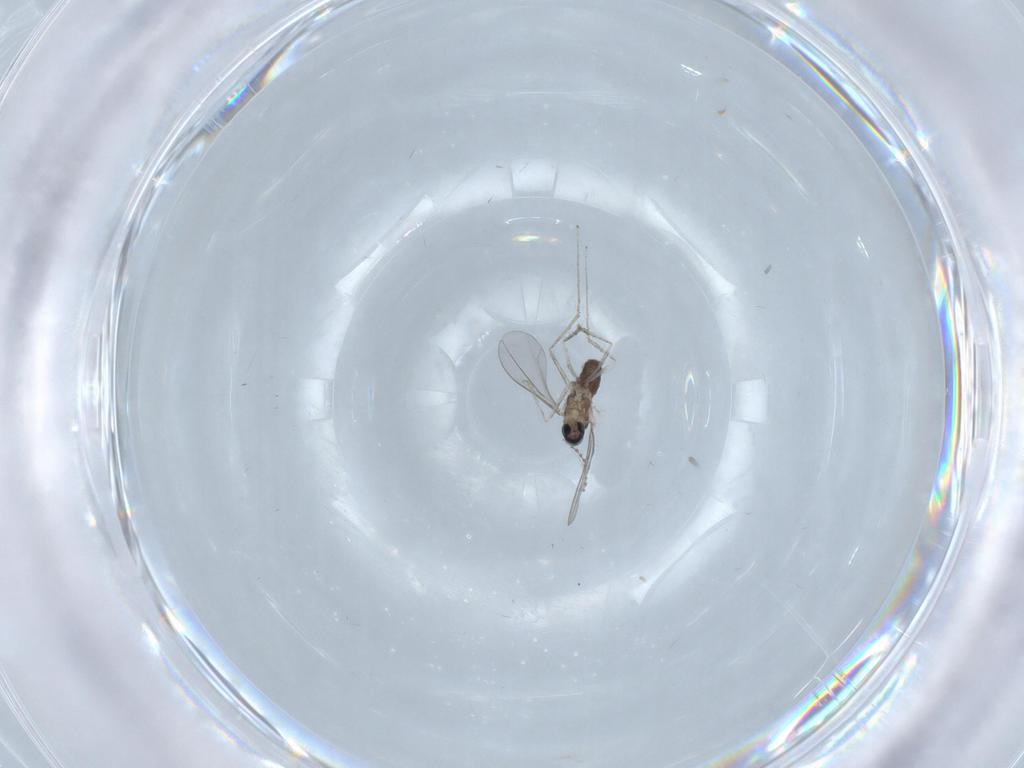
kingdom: Animalia
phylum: Arthropoda
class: Insecta
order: Diptera
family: Cecidomyiidae
